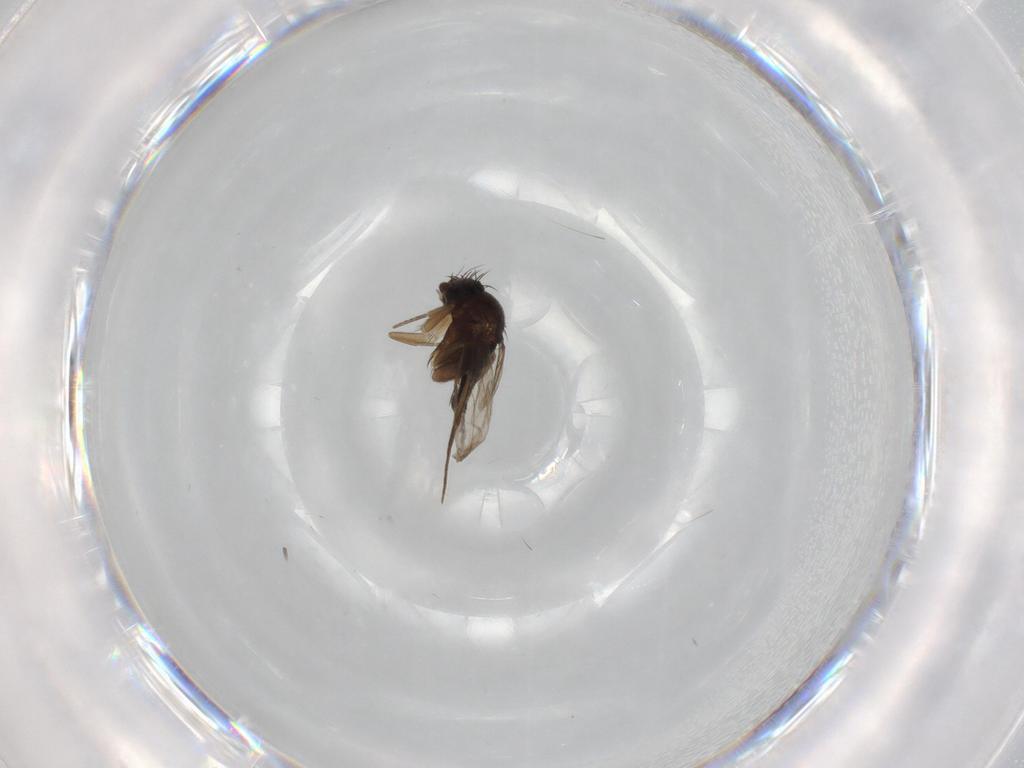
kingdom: Animalia
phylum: Arthropoda
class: Insecta
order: Diptera
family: Phoridae
